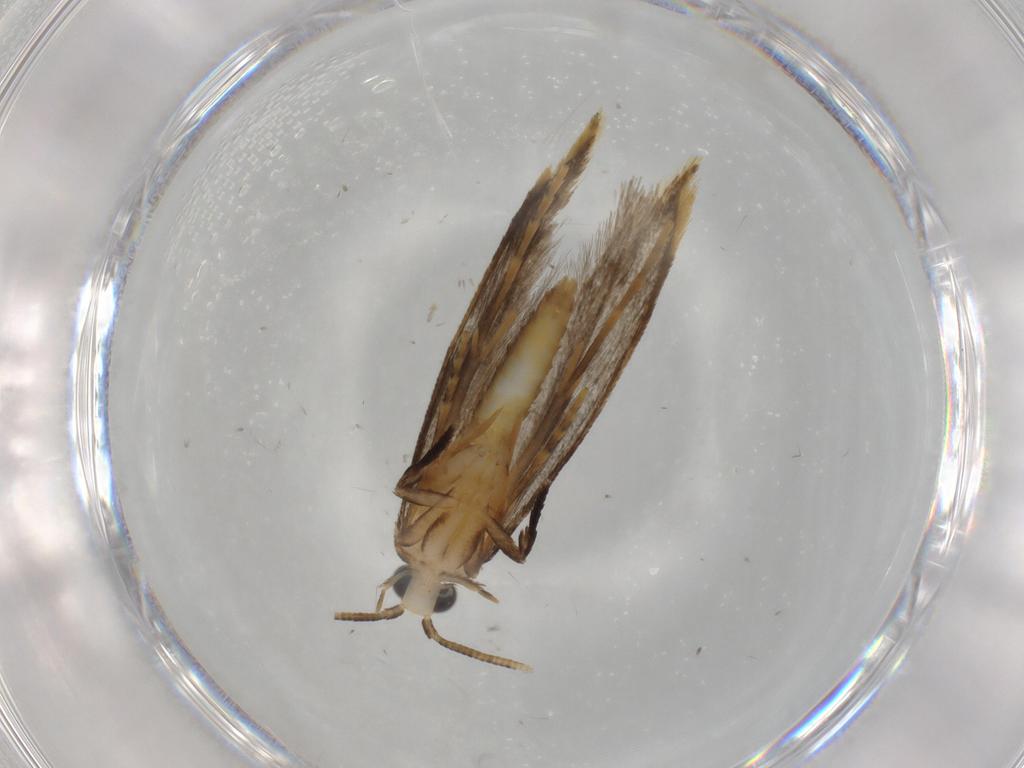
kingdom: Animalia
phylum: Arthropoda
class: Insecta
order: Lepidoptera
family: Tineidae
